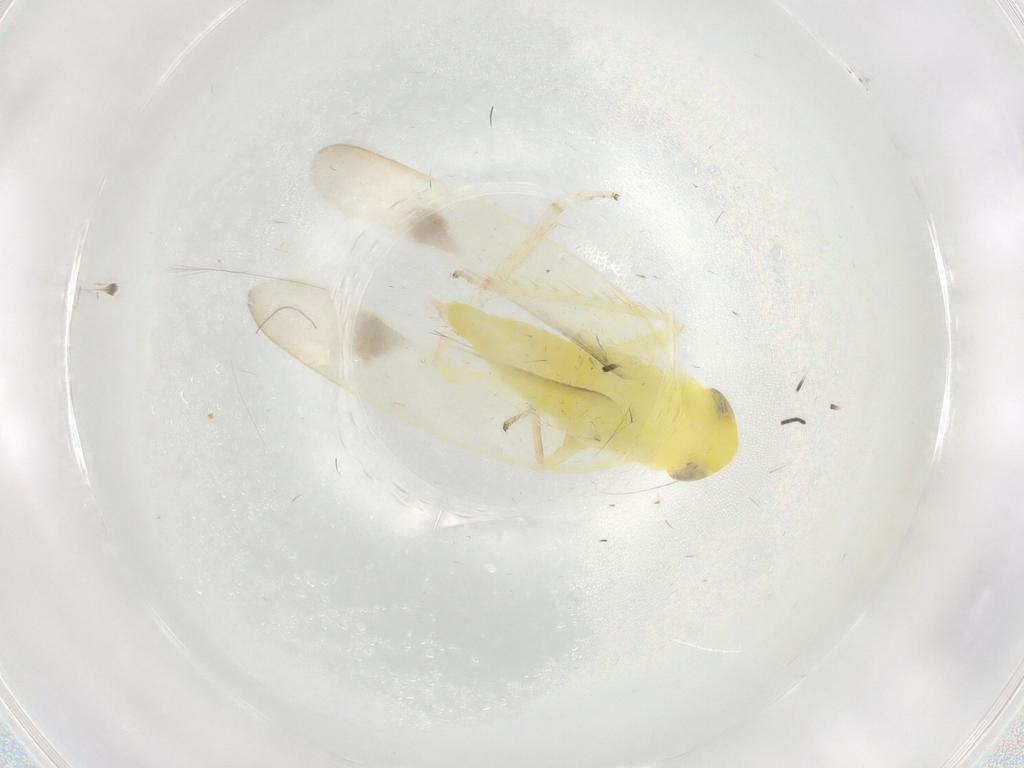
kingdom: Animalia
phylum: Arthropoda
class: Insecta
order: Hemiptera
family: Cicadellidae
